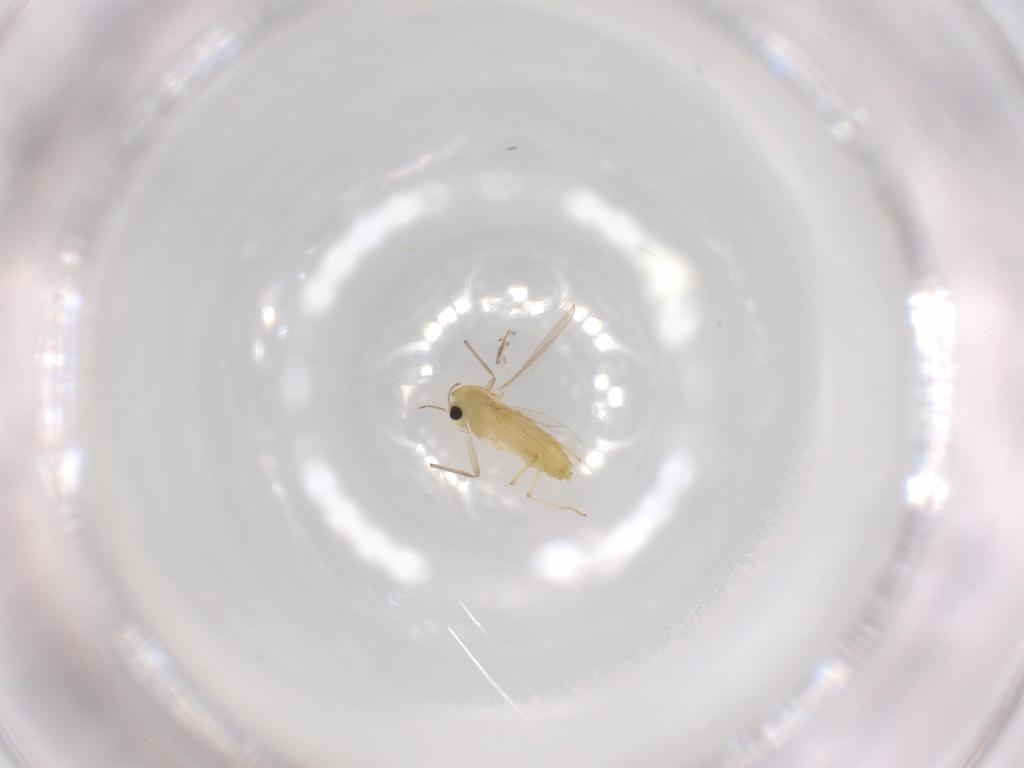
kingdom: Animalia
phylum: Arthropoda
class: Insecta
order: Diptera
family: Chironomidae
